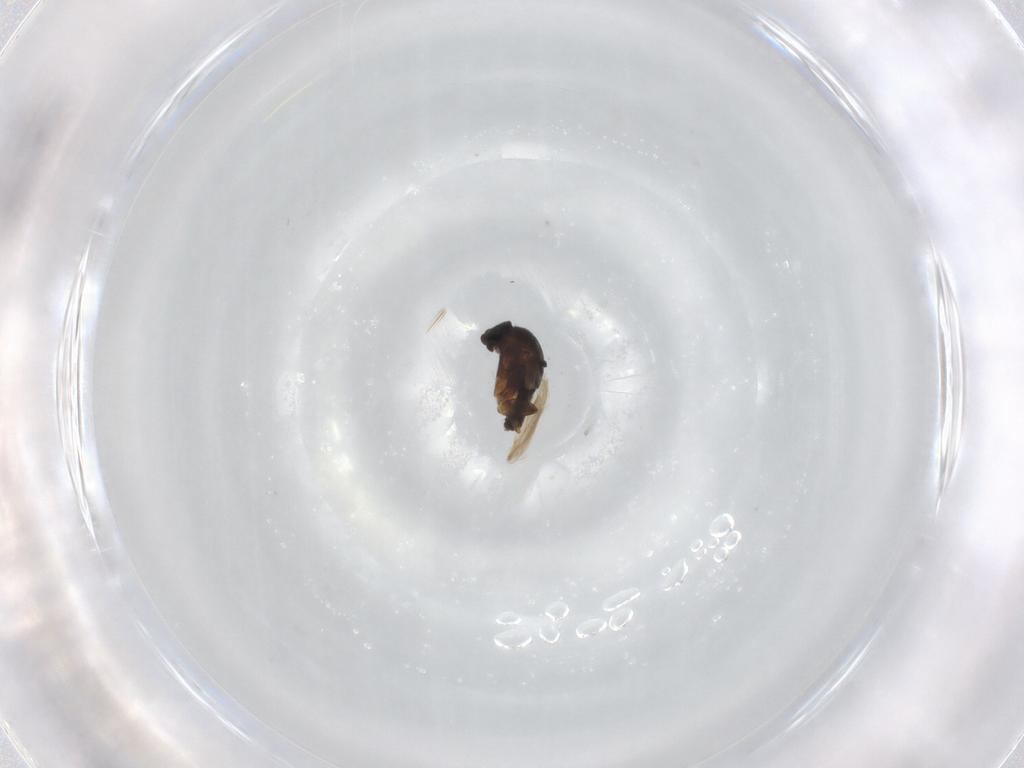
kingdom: Animalia
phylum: Arthropoda
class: Insecta
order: Diptera
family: Phoridae
